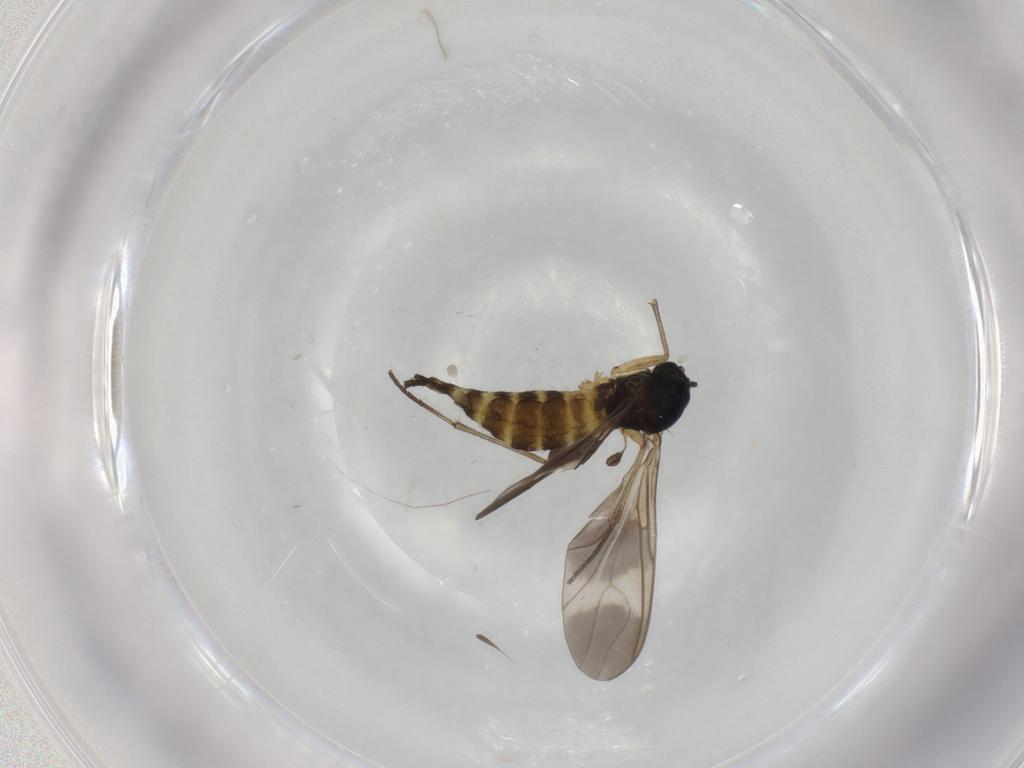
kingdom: Animalia
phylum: Arthropoda
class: Insecta
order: Diptera
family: Sciaridae
